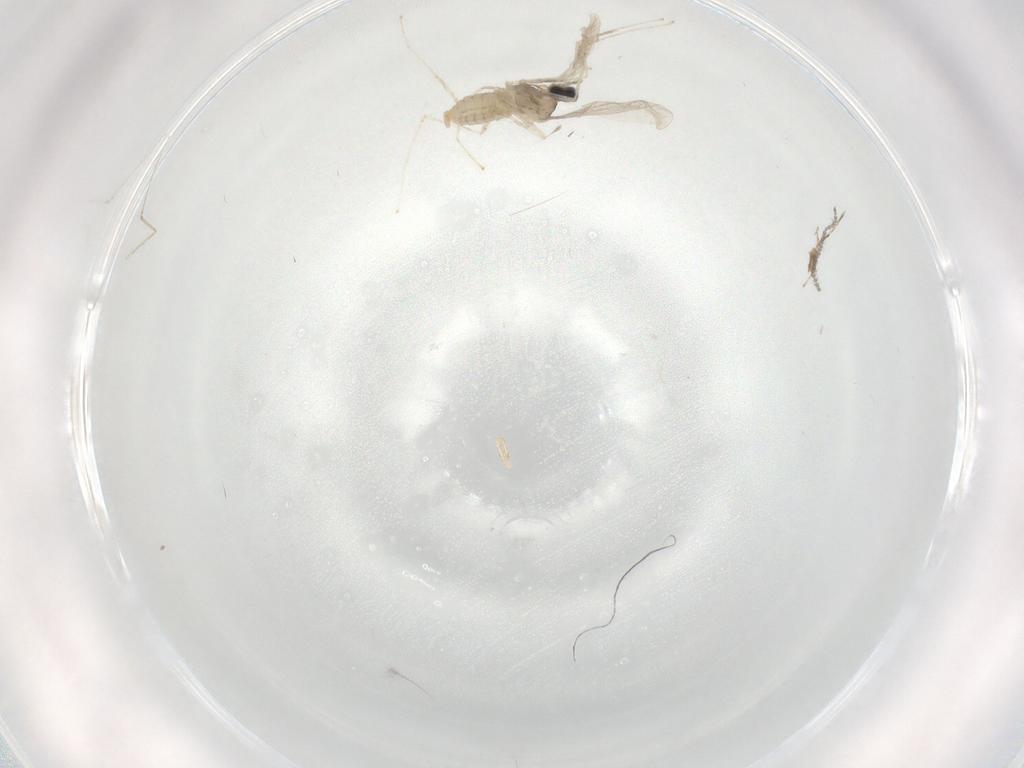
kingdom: Animalia
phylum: Arthropoda
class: Insecta
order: Diptera
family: Cecidomyiidae
